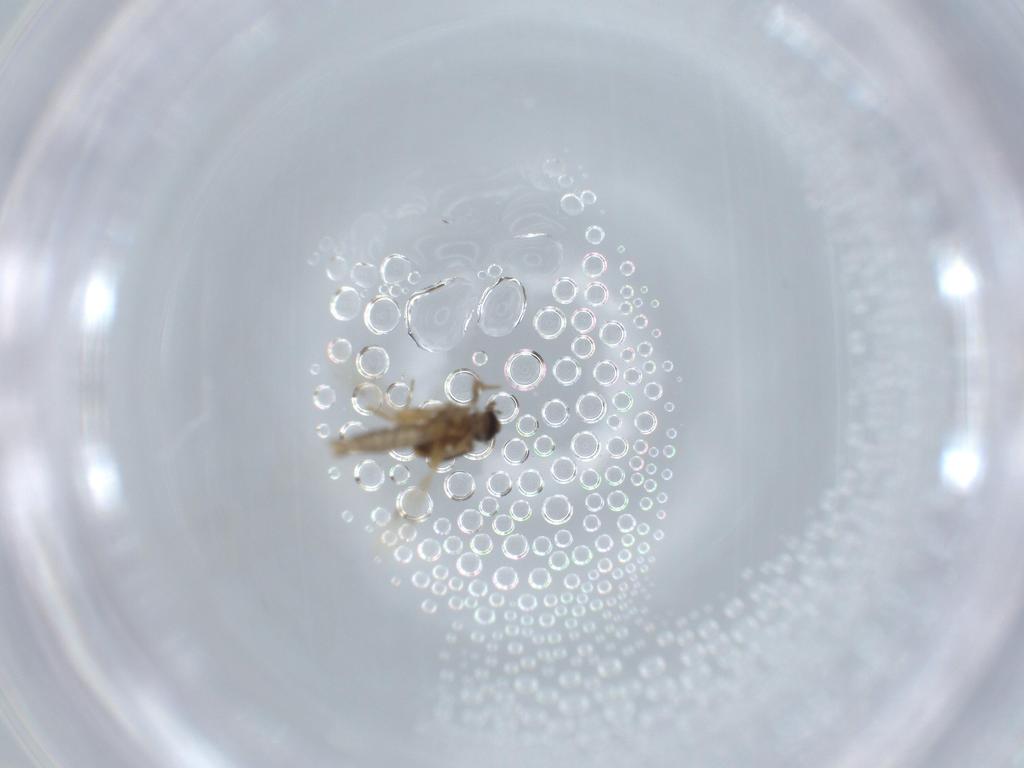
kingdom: Animalia
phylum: Arthropoda
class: Insecta
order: Diptera
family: Ceratopogonidae
